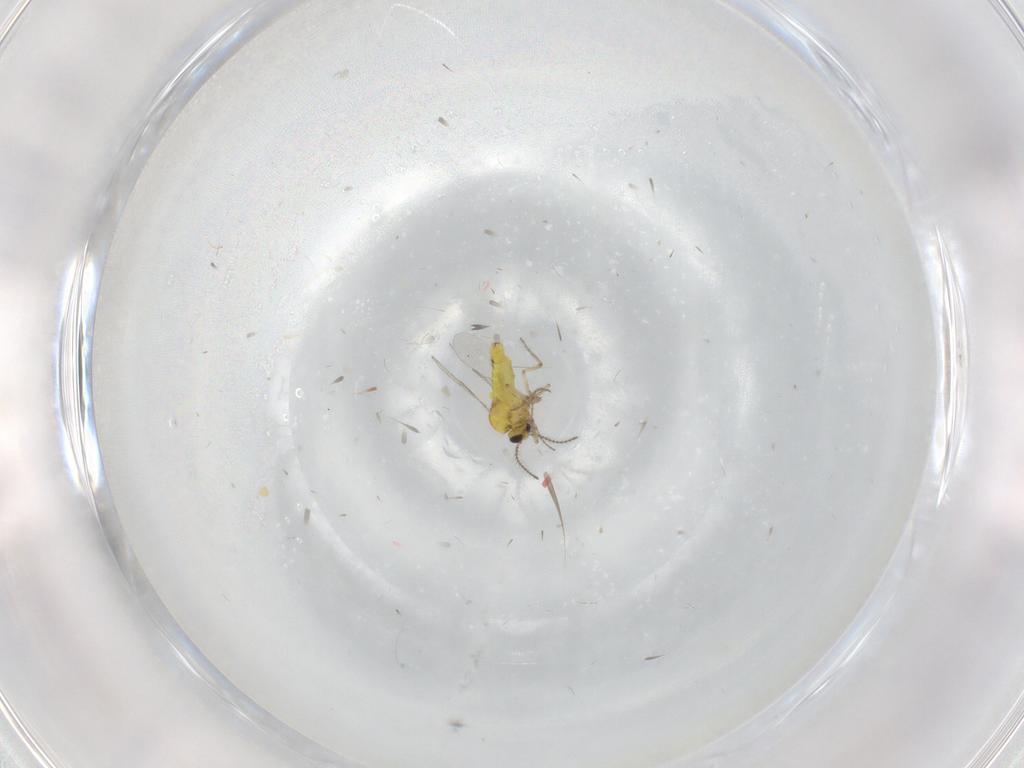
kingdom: Animalia
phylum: Arthropoda
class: Insecta
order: Diptera
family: Ceratopogonidae
